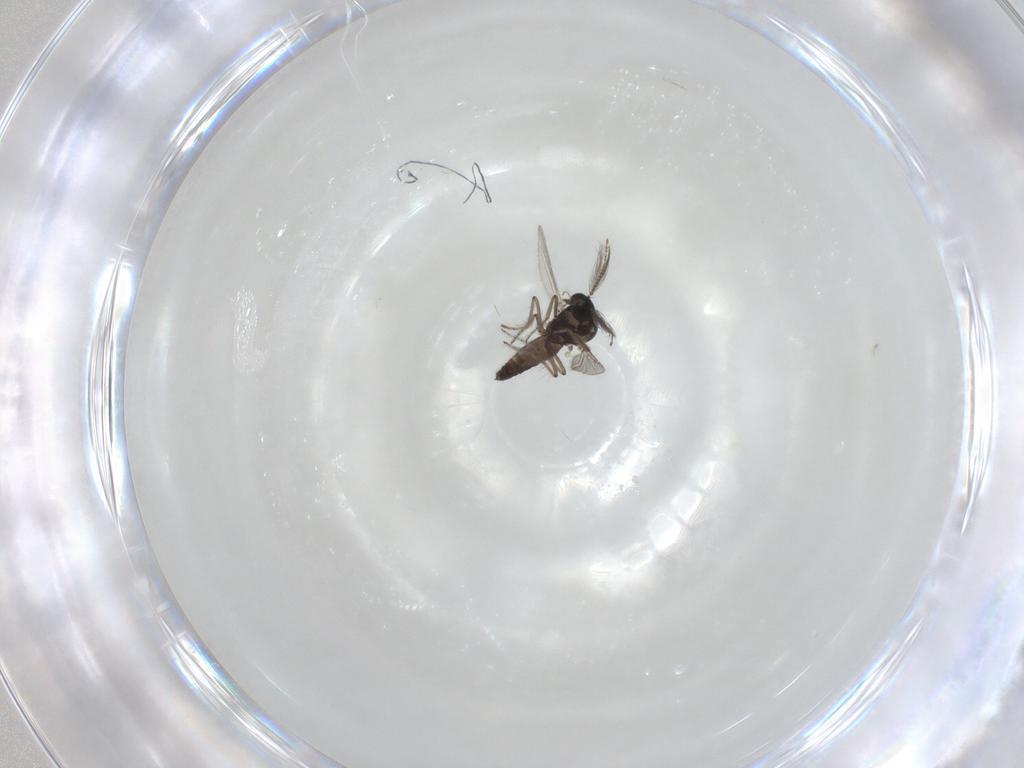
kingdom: Animalia
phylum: Arthropoda
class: Insecta
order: Diptera
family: Ceratopogonidae
